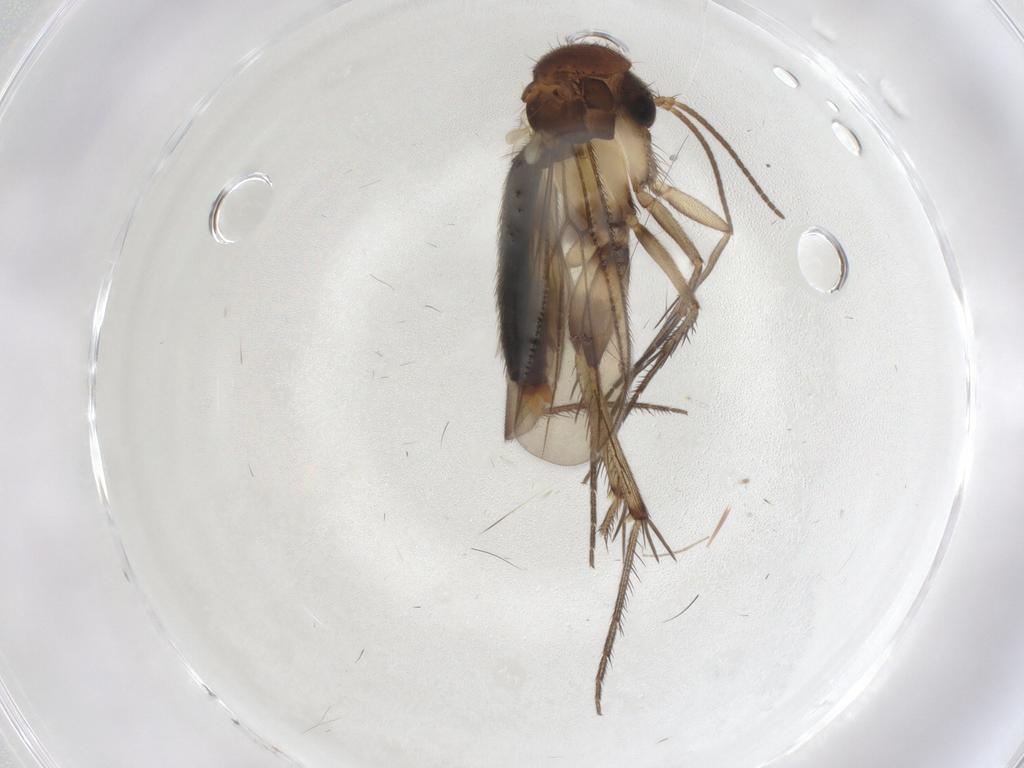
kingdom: Animalia
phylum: Arthropoda
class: Insecta
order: Diptera
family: Mycetophilidae
